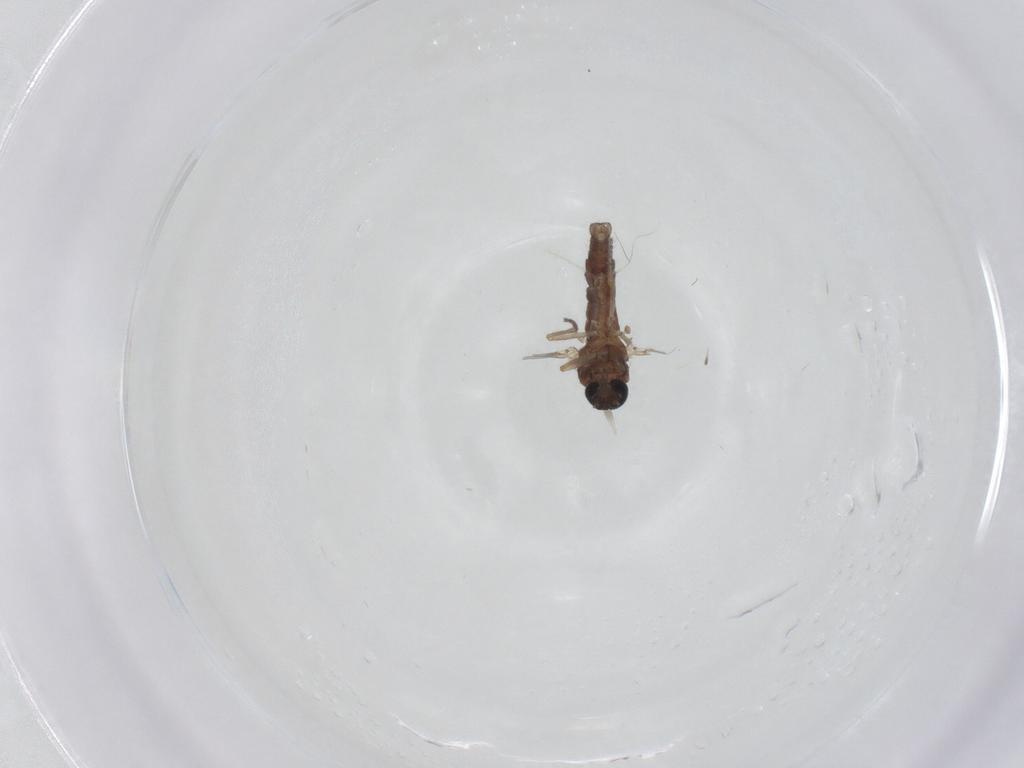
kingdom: Animalia
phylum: Arthropoda
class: Insecta
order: Diptera
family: Ceratopogonidae
